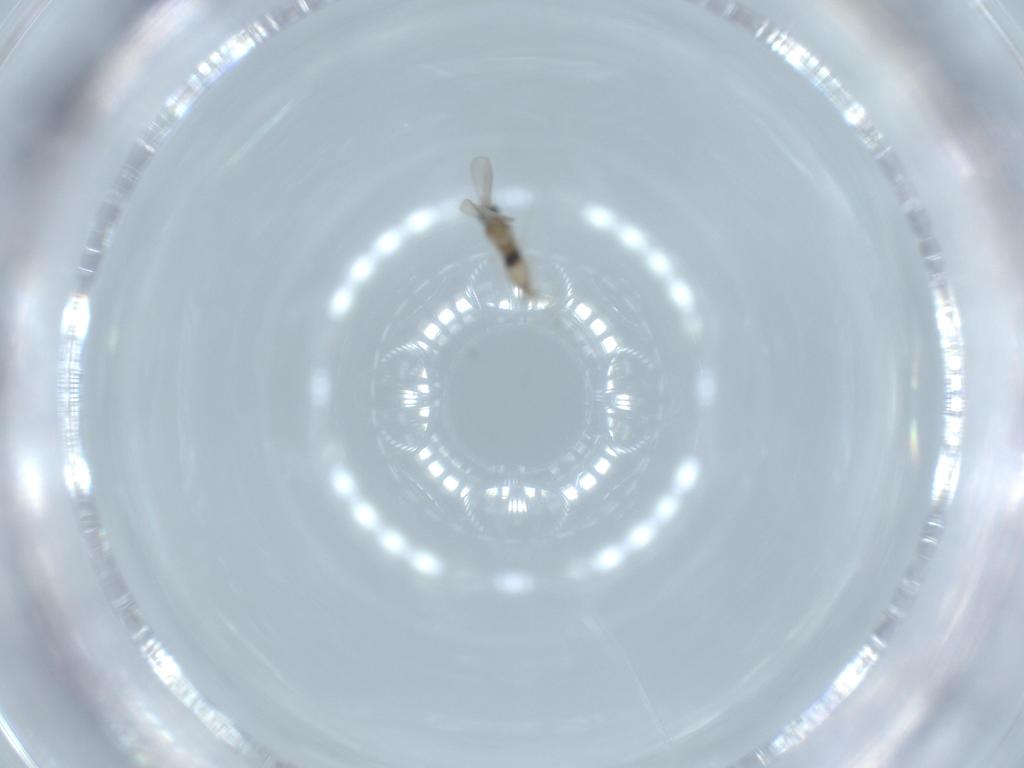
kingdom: Animalia
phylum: Arthropoda
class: Insecta
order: Diptera
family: Cecidomyiidae
